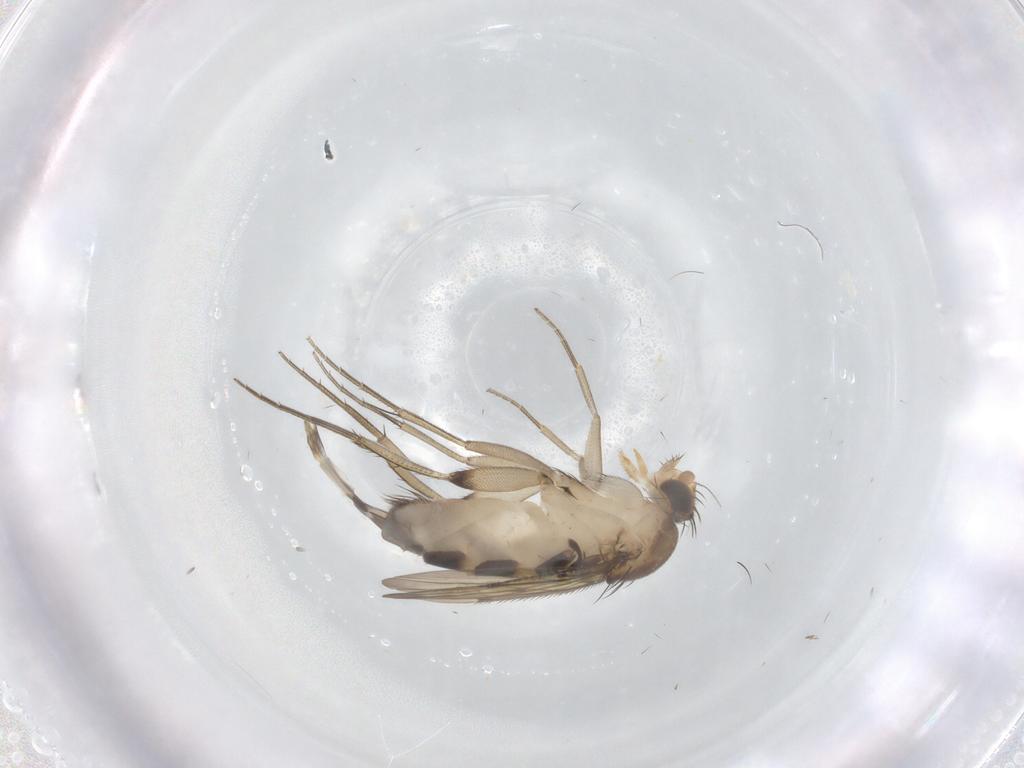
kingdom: Animalia
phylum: Arthropoda
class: Insecta
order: Diptera
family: Phoridae
